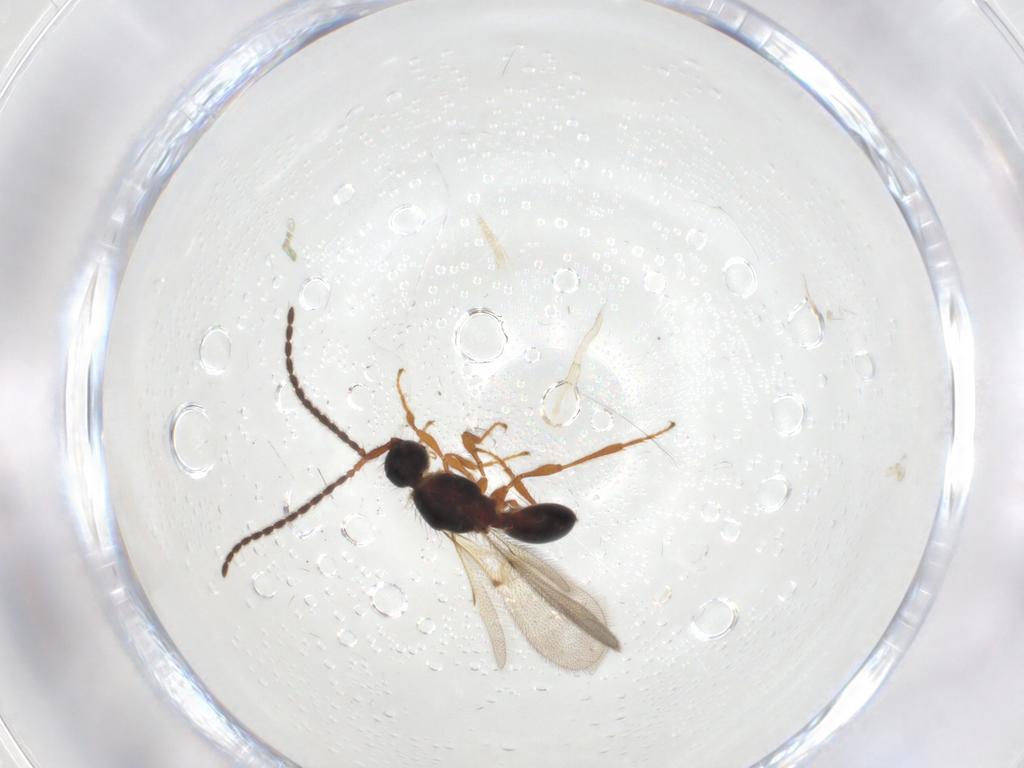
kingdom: Animalia
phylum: Arthropoda
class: Insecta
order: Hymenoptera
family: Diapriidae
